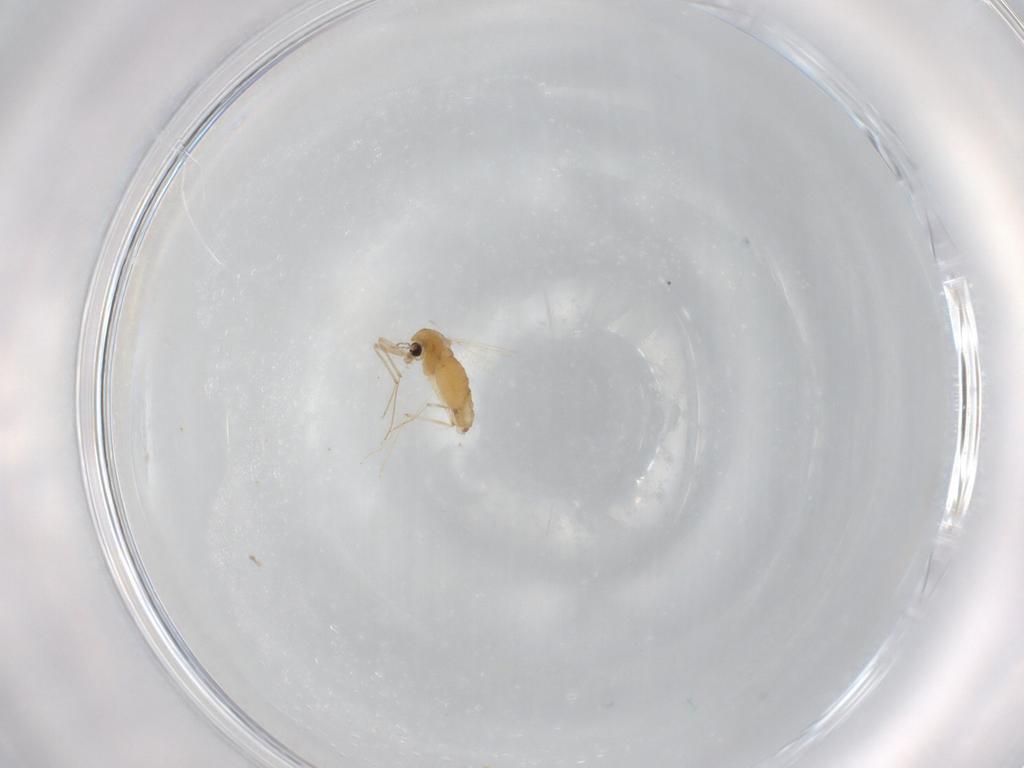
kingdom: Animalia
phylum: Arthropoda
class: Insecta
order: Diptera
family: Chironomidae
